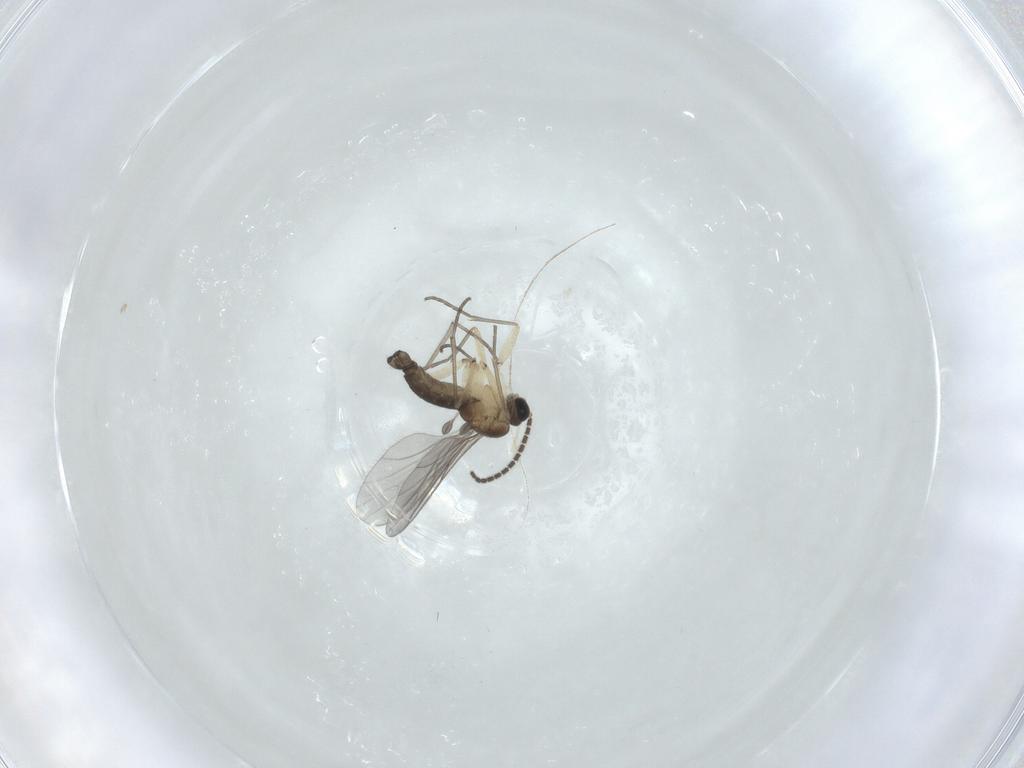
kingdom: Animalia
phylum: Arthropoda
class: Insecta
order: Diptera
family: Sciaridae
